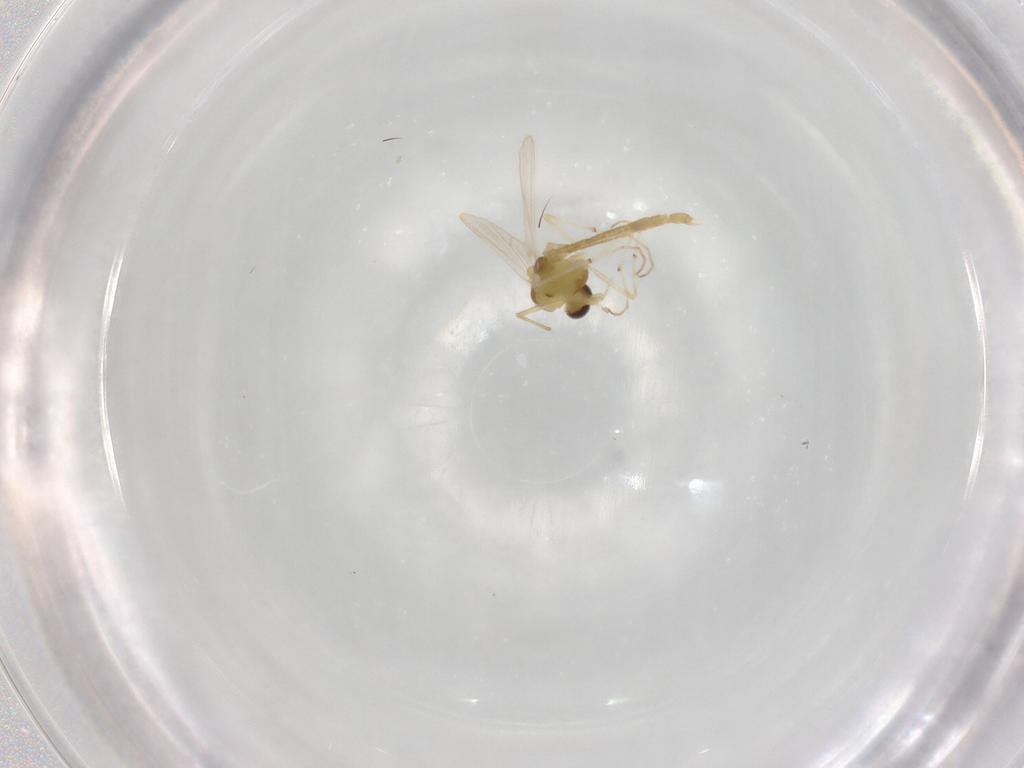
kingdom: Animalia
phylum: Arthropoda
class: Insecta
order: Diptera
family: Chironomidae
